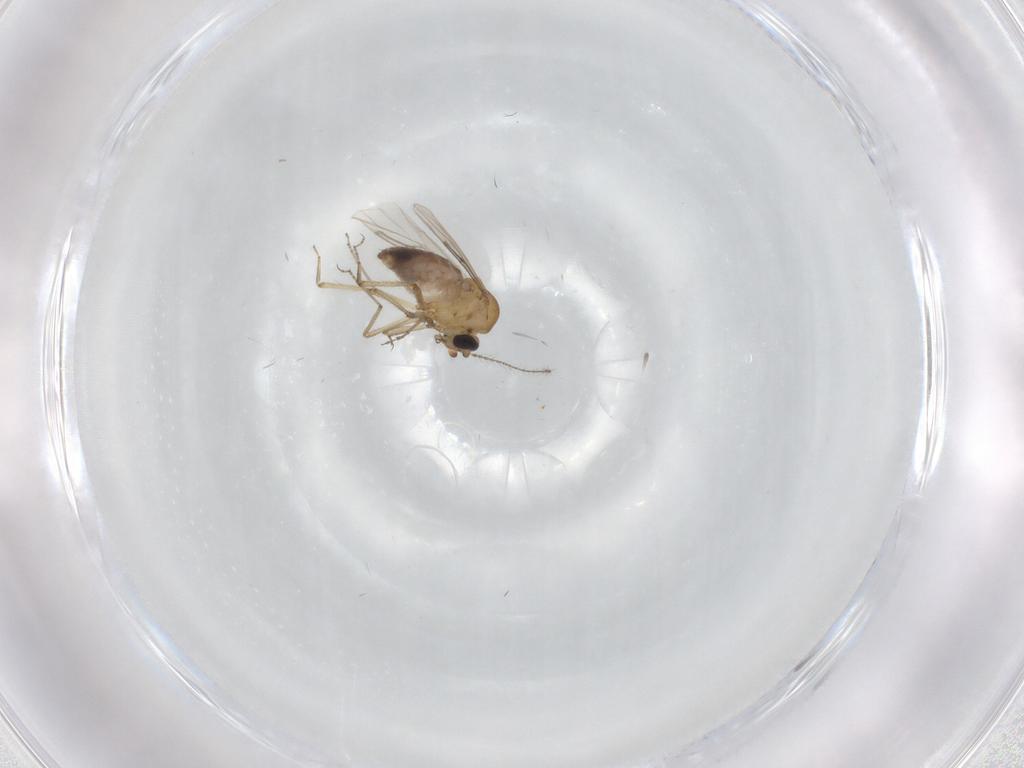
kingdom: Animalia
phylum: Arthropoda
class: Insecta
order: Diptera
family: Ceratopogonidae
